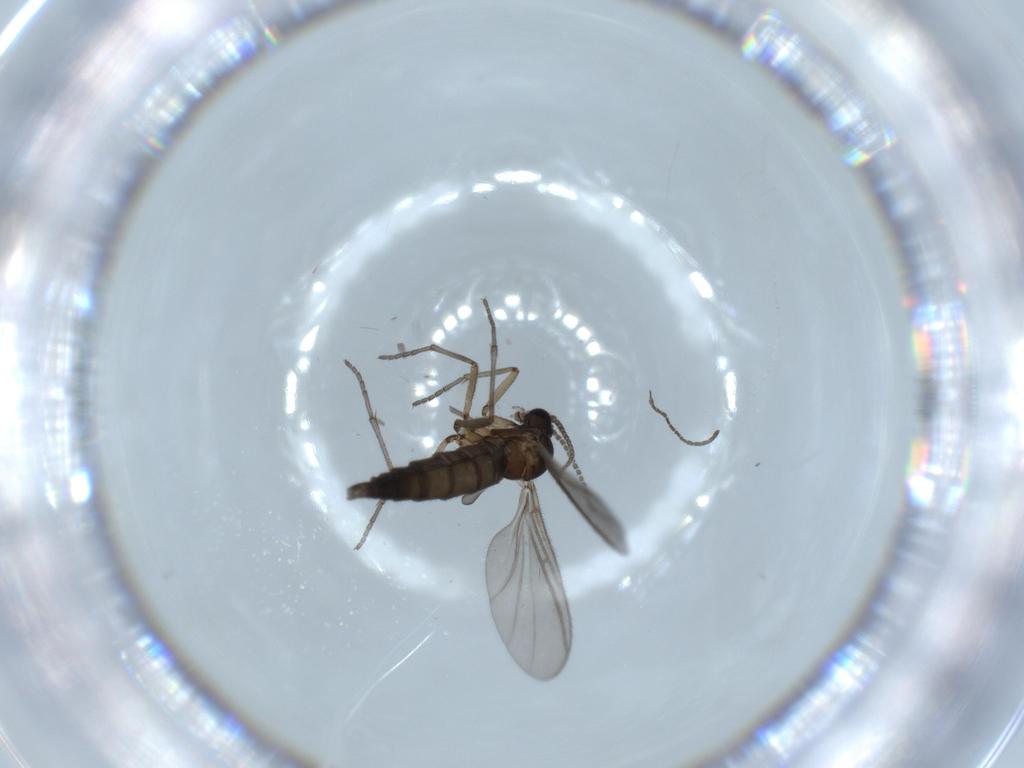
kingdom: Animalia
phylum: Arthropoda
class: Insecta
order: Diptera
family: Sciaridae
